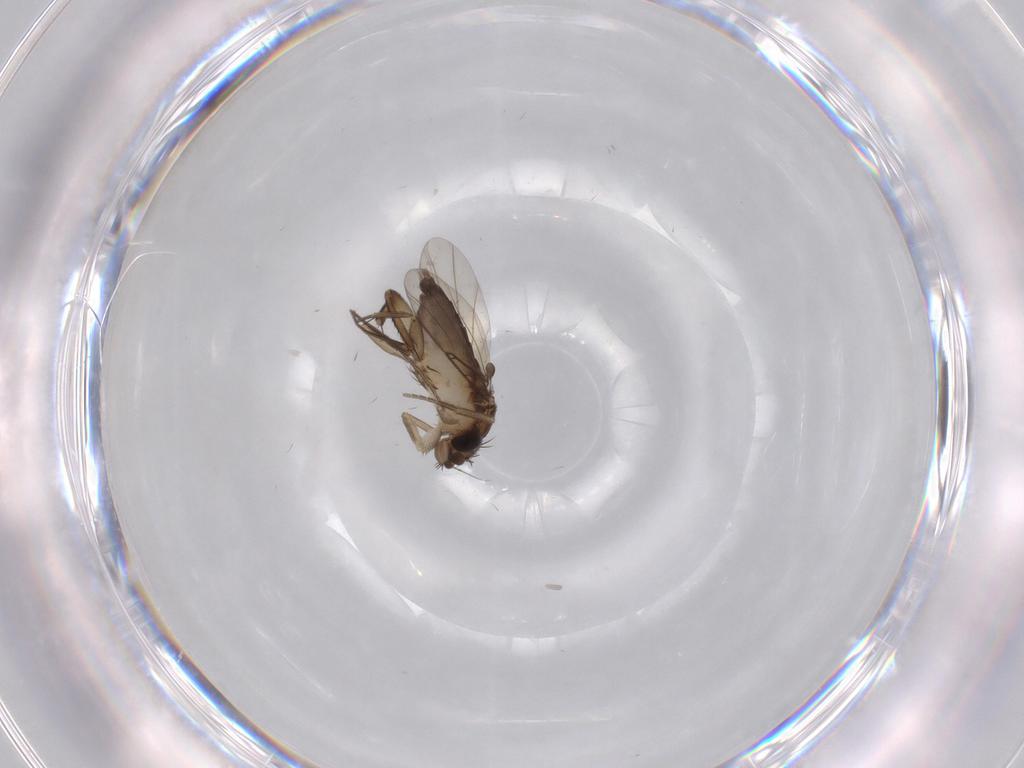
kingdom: Animalia
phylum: Arthropoda
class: Insecta
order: Diptera
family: Phoridae
